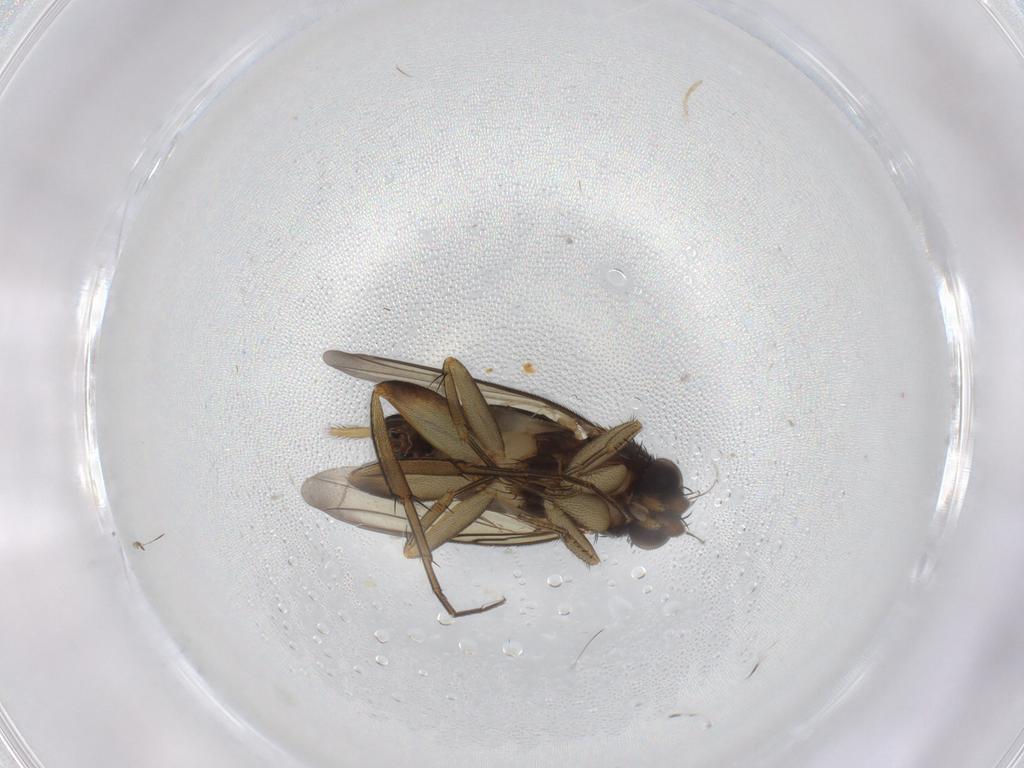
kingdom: Animalia
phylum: Arthropoda
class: Insecta
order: Diptera
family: Phoridae
